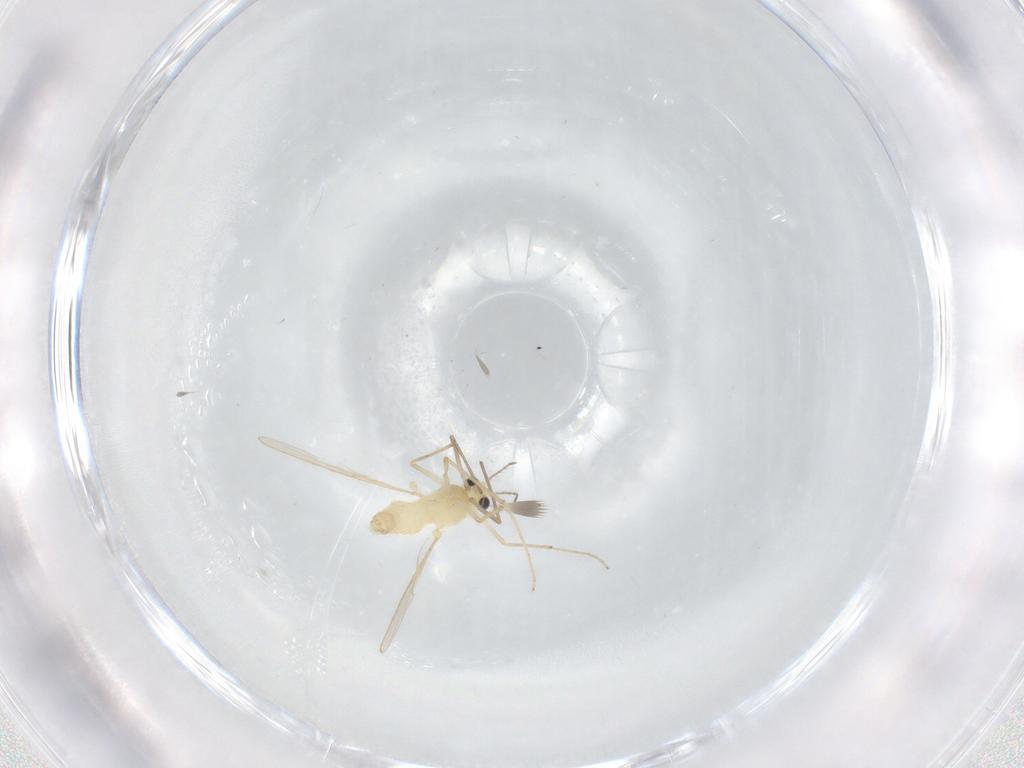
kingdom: Animalia
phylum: Arthropoda
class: Insecta
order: Diptera
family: Chironomidae
